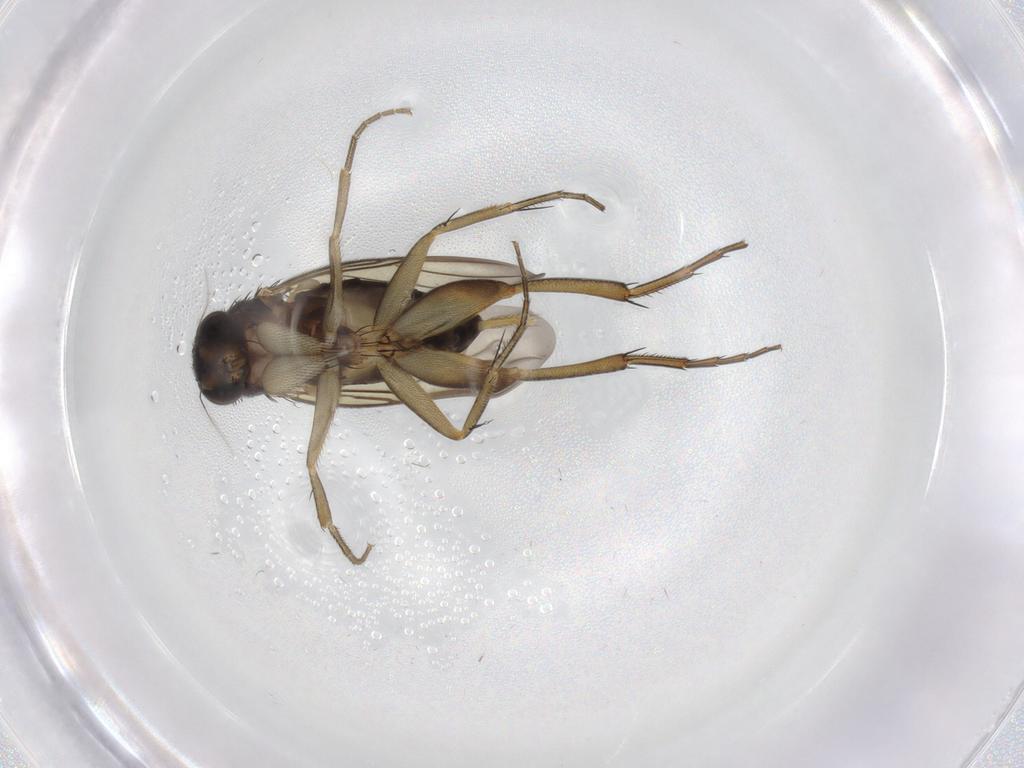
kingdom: Animalia
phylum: Arthropoda
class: Insecta
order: Diptera
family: Phoridae
